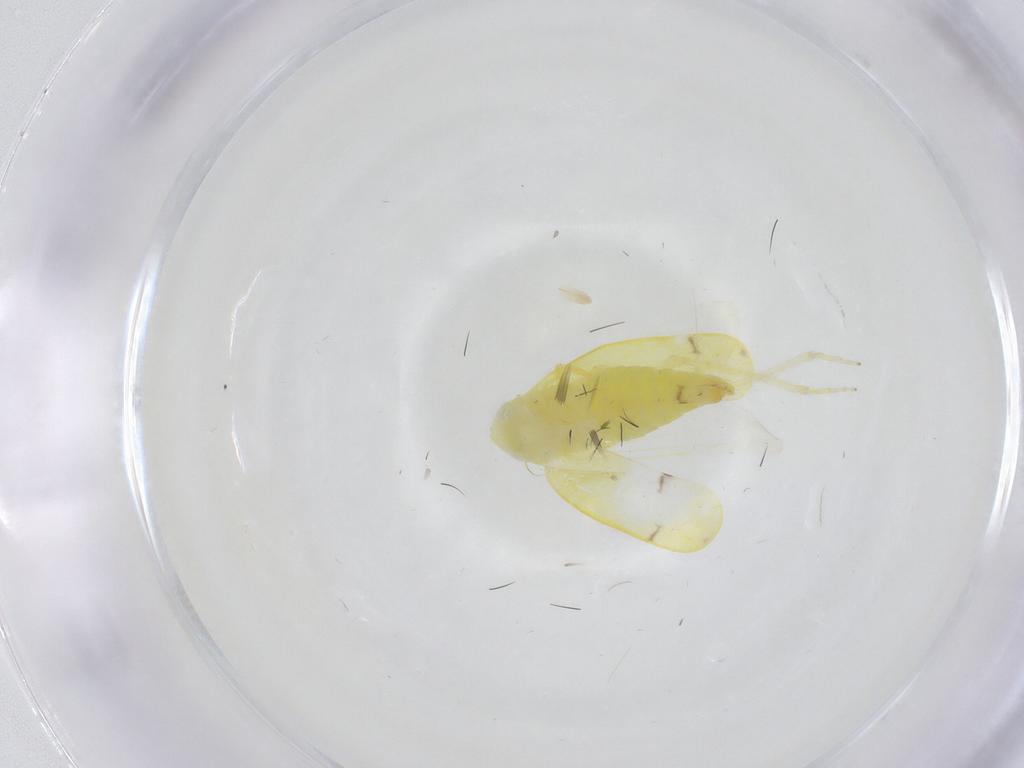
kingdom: Animalia
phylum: Arthropoda
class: Insecta
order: Hemiptera
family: Cicadellidae
